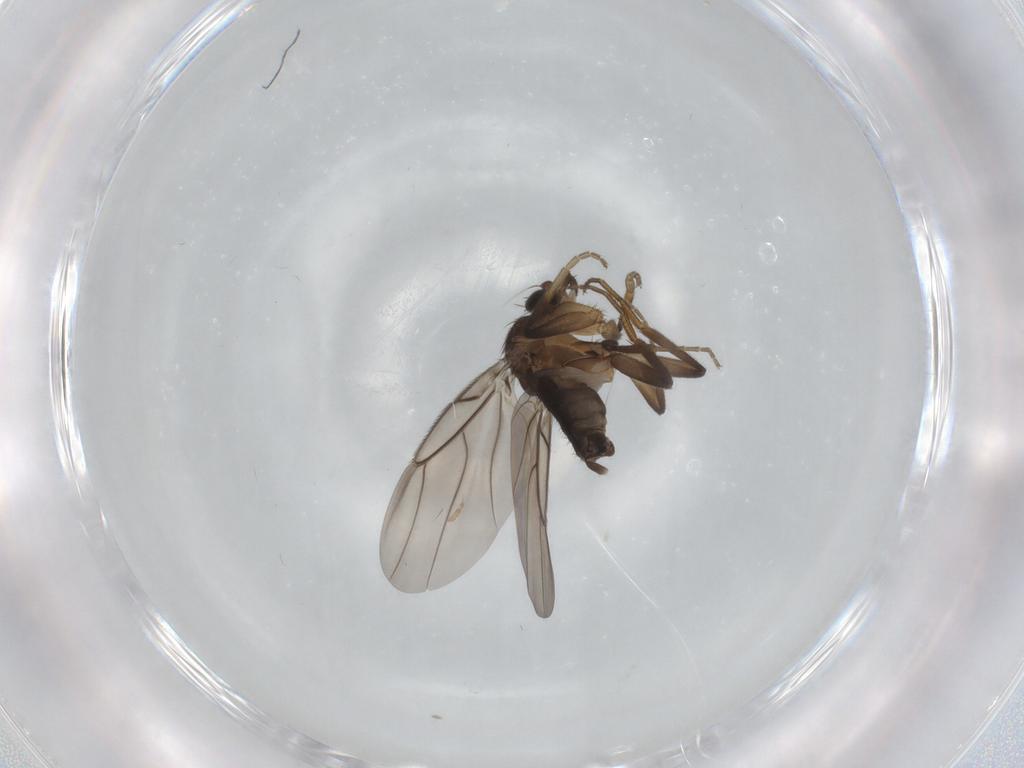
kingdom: Animalia
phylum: Arthropoda
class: Insecta
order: Diptera
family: Phoridae
